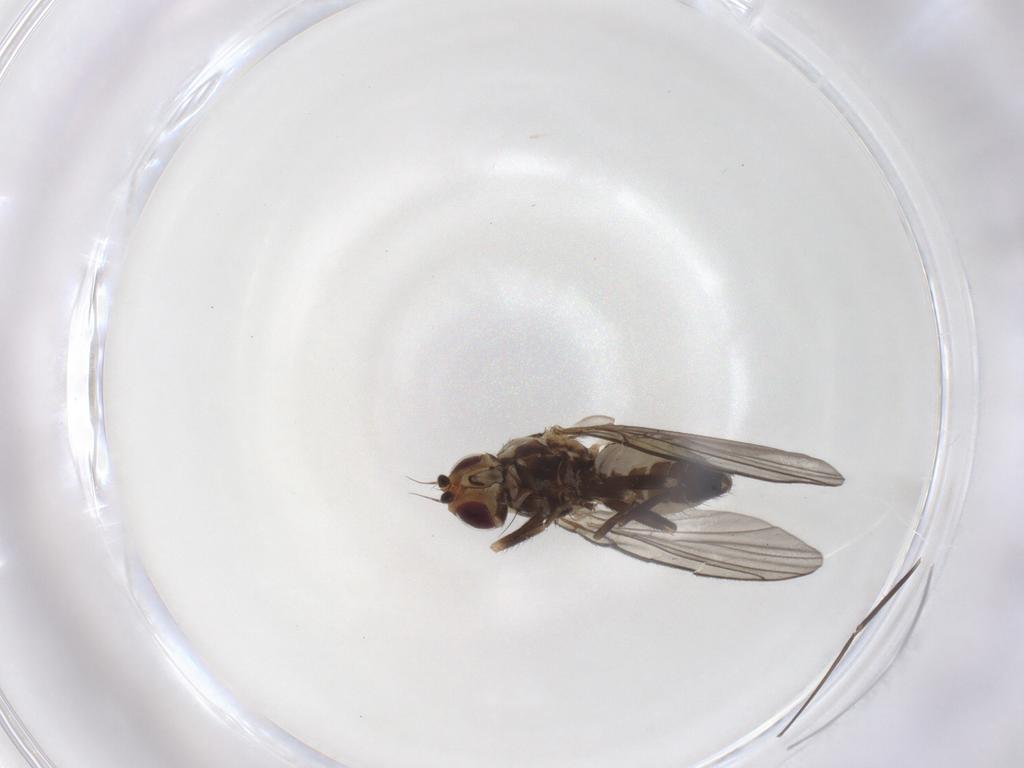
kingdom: Animalia
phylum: Arthropoda
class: Insecta
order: Diptera
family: Agromyzidae
